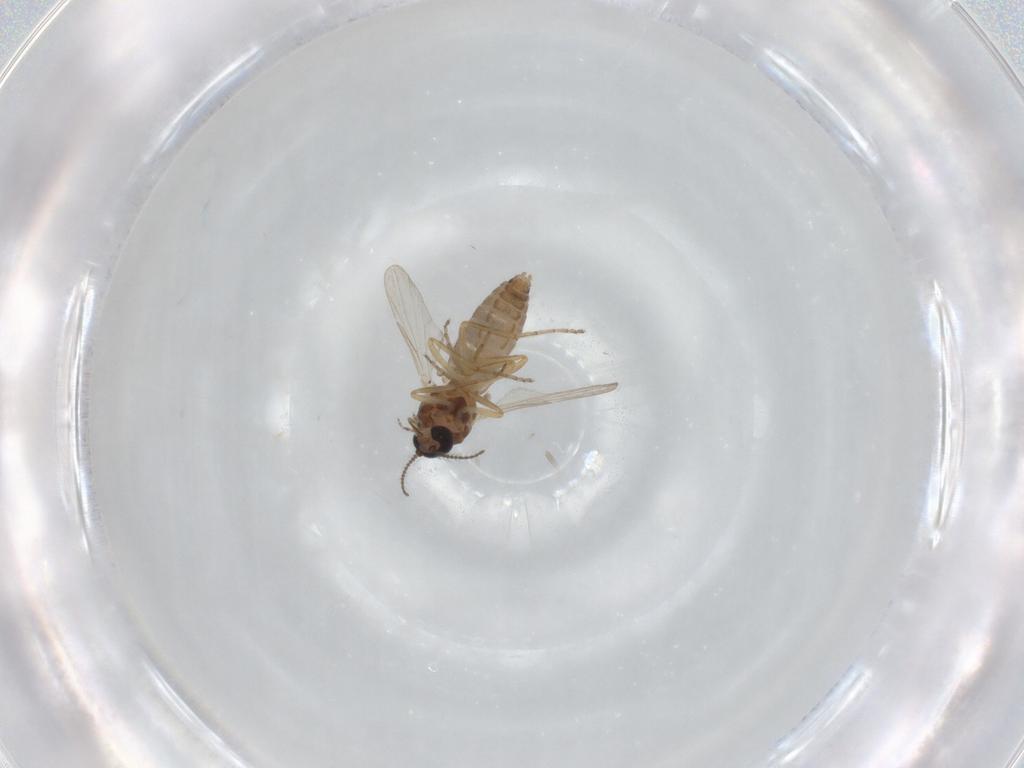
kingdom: Animalia
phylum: Arthropoda
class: Insecta
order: Diptera
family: Ceratopogonidae
